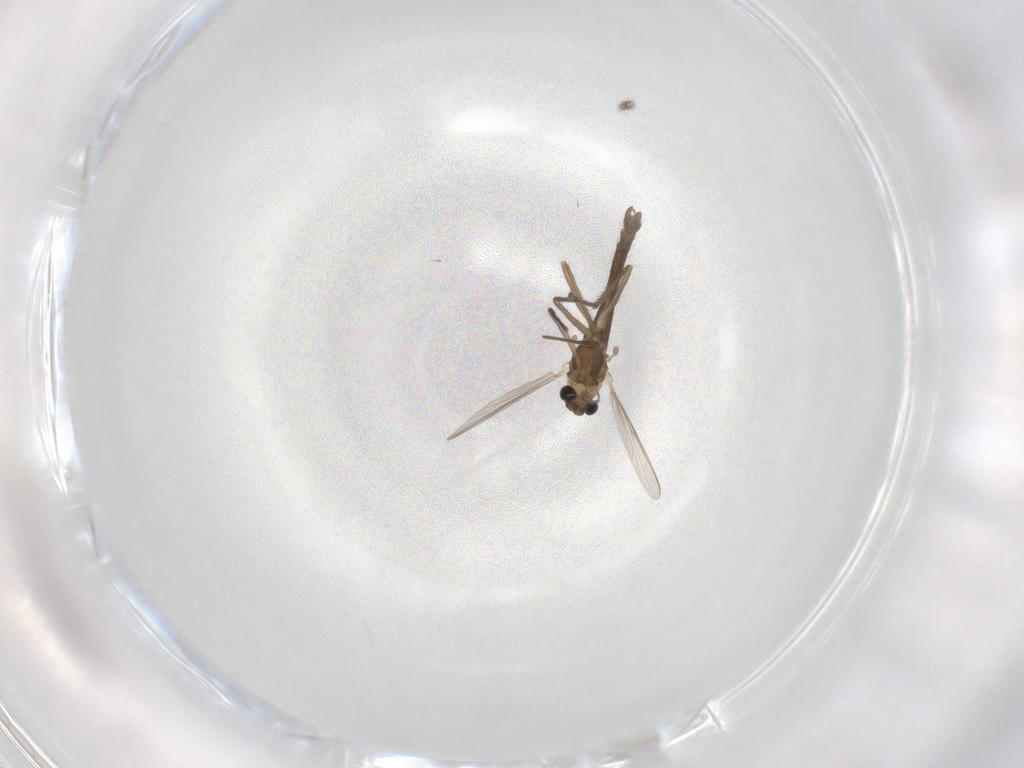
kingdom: Animalia
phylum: Arthropoda
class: Insecta
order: Diptera
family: Chironomidae
